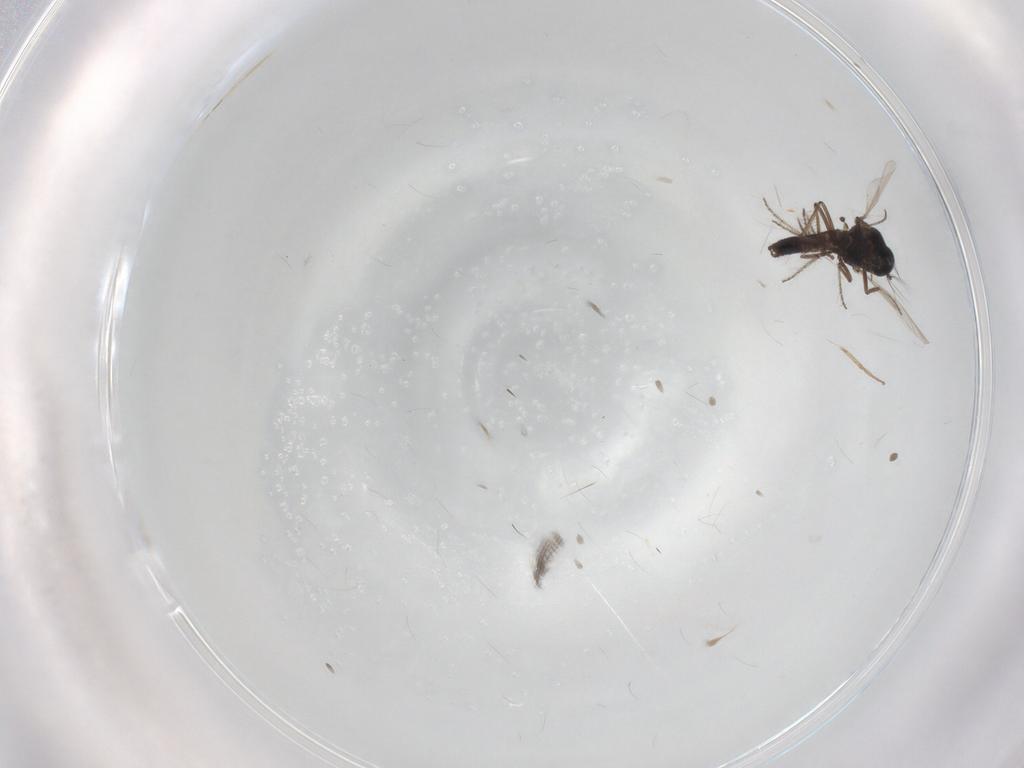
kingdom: Animalia
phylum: Arthropoda
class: Insecta
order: Diptera
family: Ceratopogonidae
